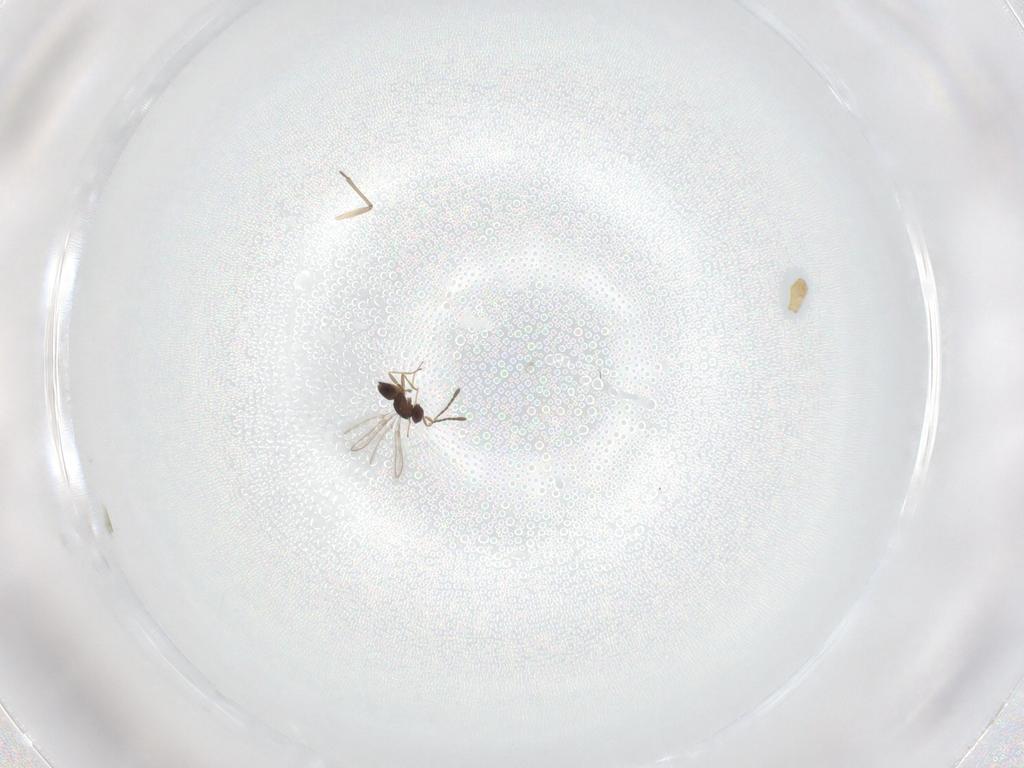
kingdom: Animalia
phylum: Arthropoda
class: Insecta
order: Hymenoptera
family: Mymaridae
